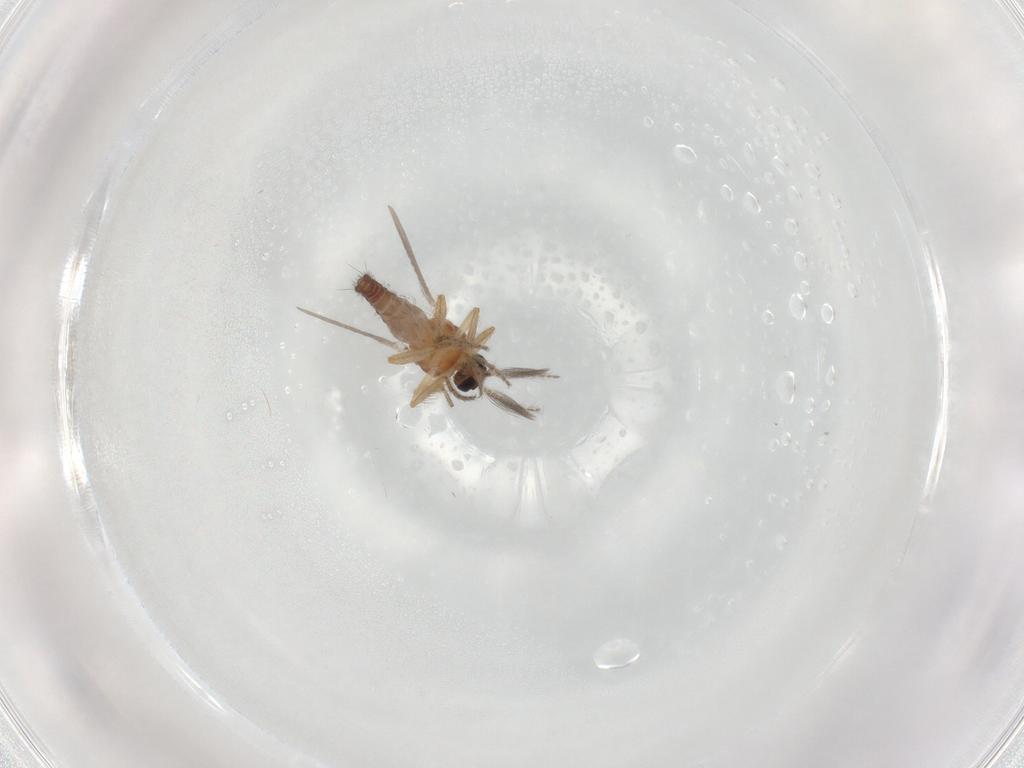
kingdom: Animalia
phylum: Arthropoda
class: Insecta
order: Diptera
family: Ceratopogonidae
